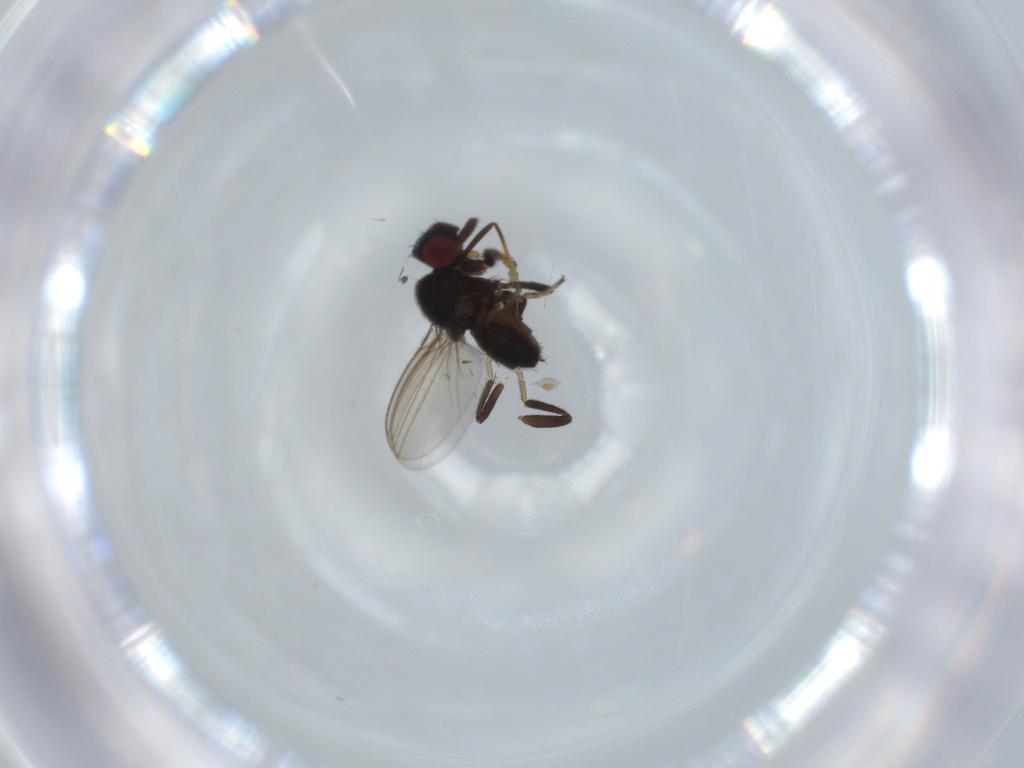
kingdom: Animalia
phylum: Arthropoda
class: Insecta
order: Diptera
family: Milichiidae
